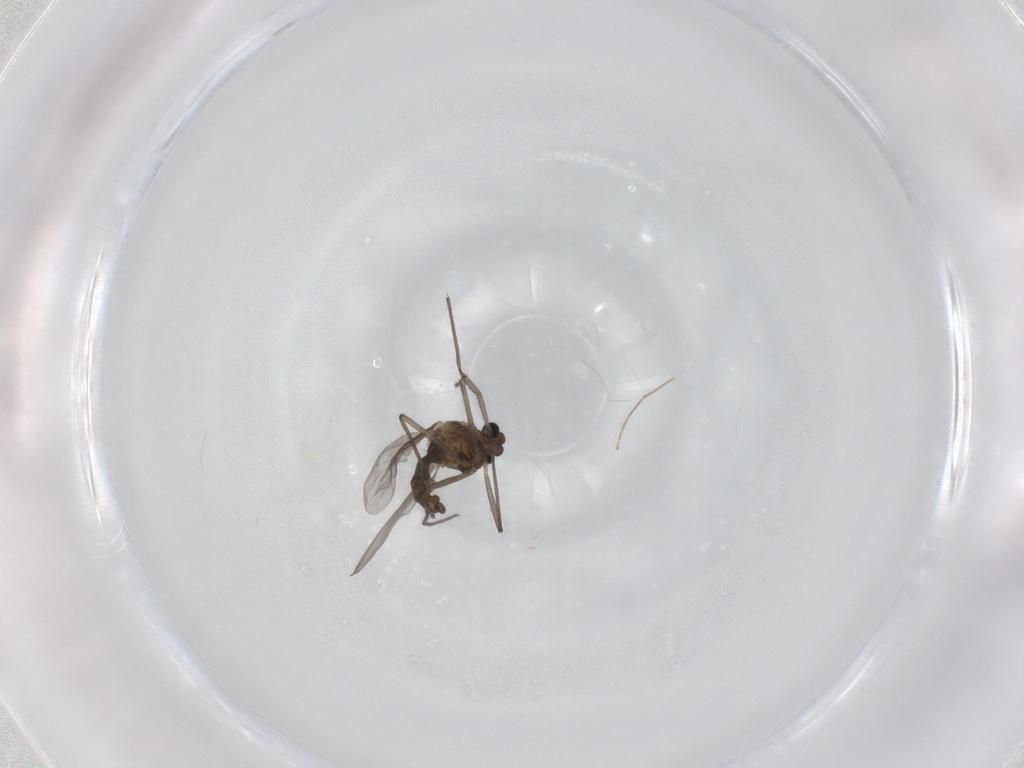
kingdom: Animalia
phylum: Arthropoda
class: Insecta
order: Diptera
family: Chironomidae
